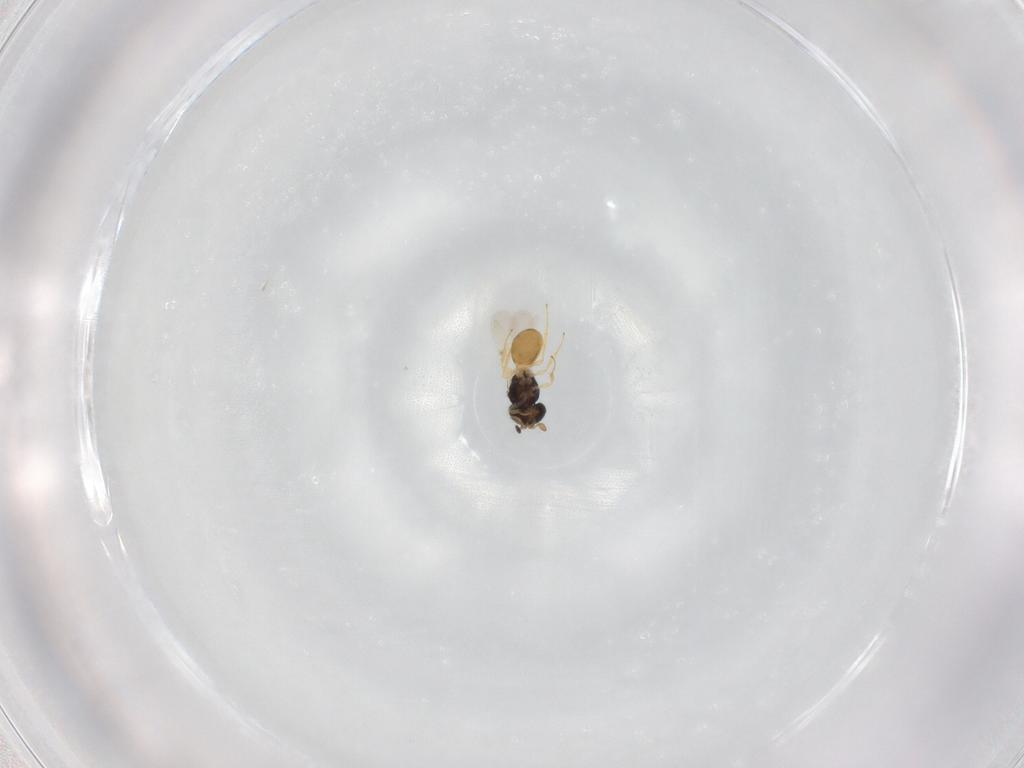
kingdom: Animalia
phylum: Arthropoda
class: Insecta
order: Hymenoptera
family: Scelionidae
